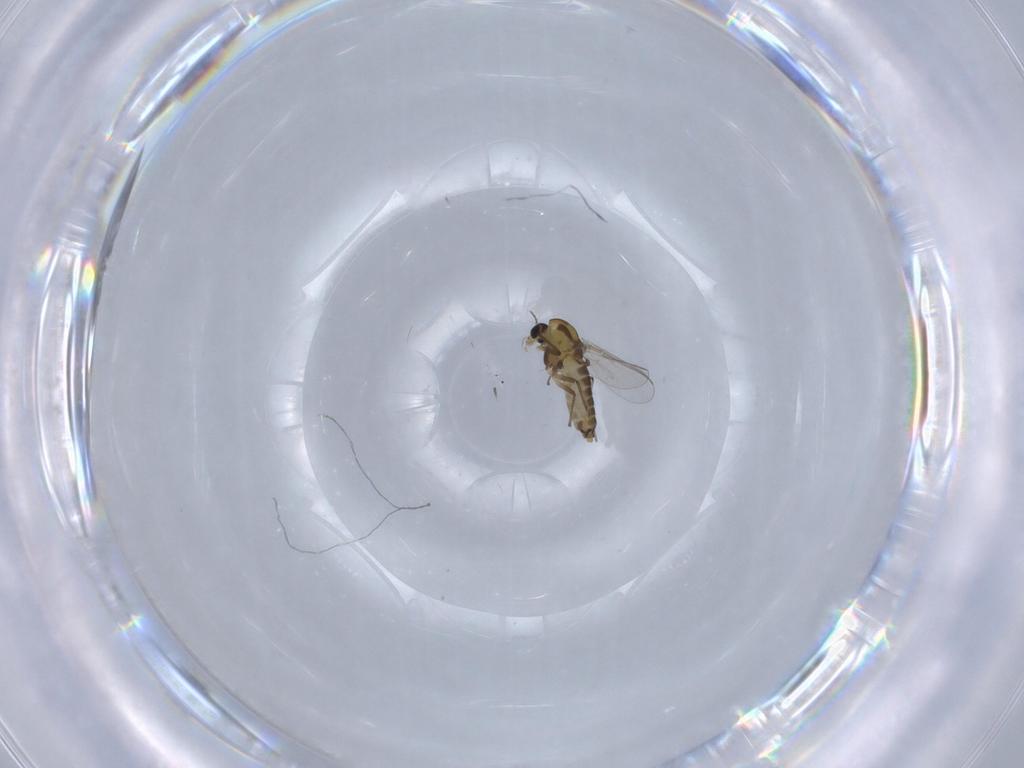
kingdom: Animalia
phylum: Arthropoda
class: Insecta
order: Diptera
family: Chironomidae
